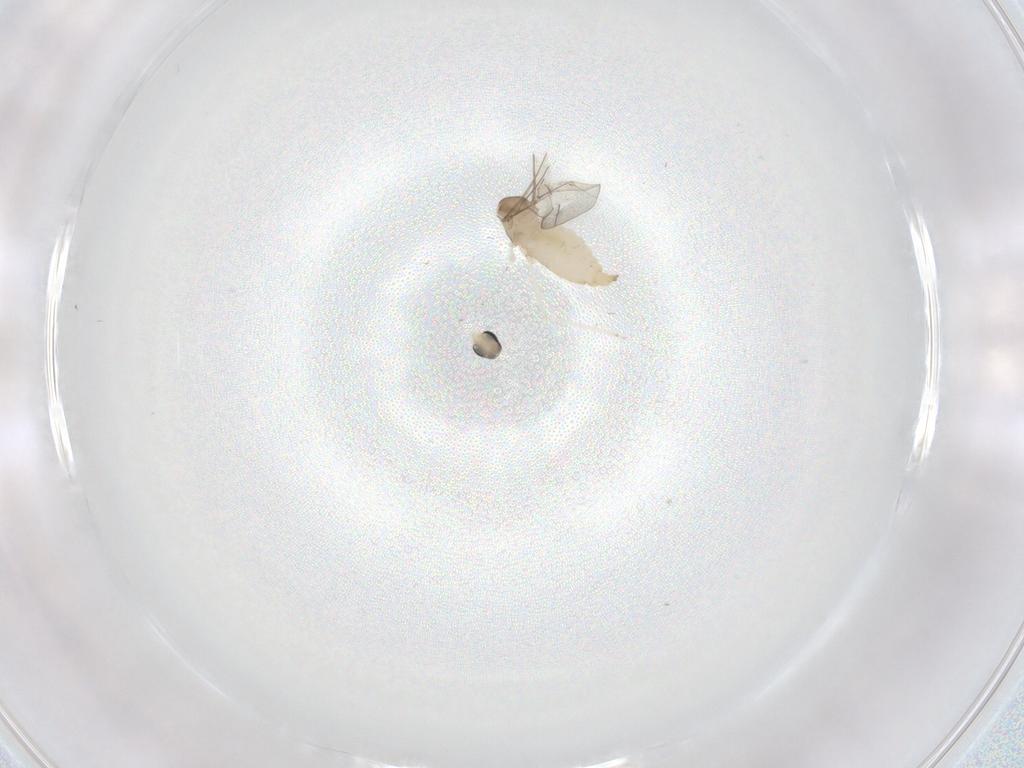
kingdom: Animalia
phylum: Arthropoda
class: Insecta
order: Diptera
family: Cecidomyiidae
